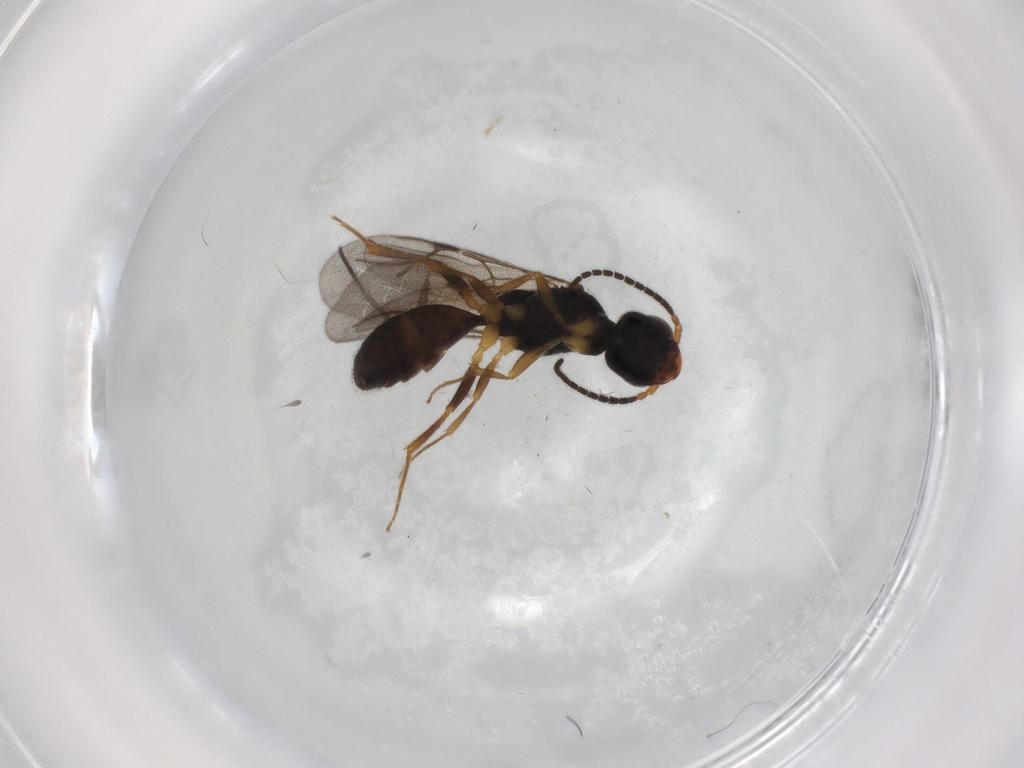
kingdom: Animalia
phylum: Arthropoda
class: Insecta
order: Hymenoptera
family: Bethylidae
